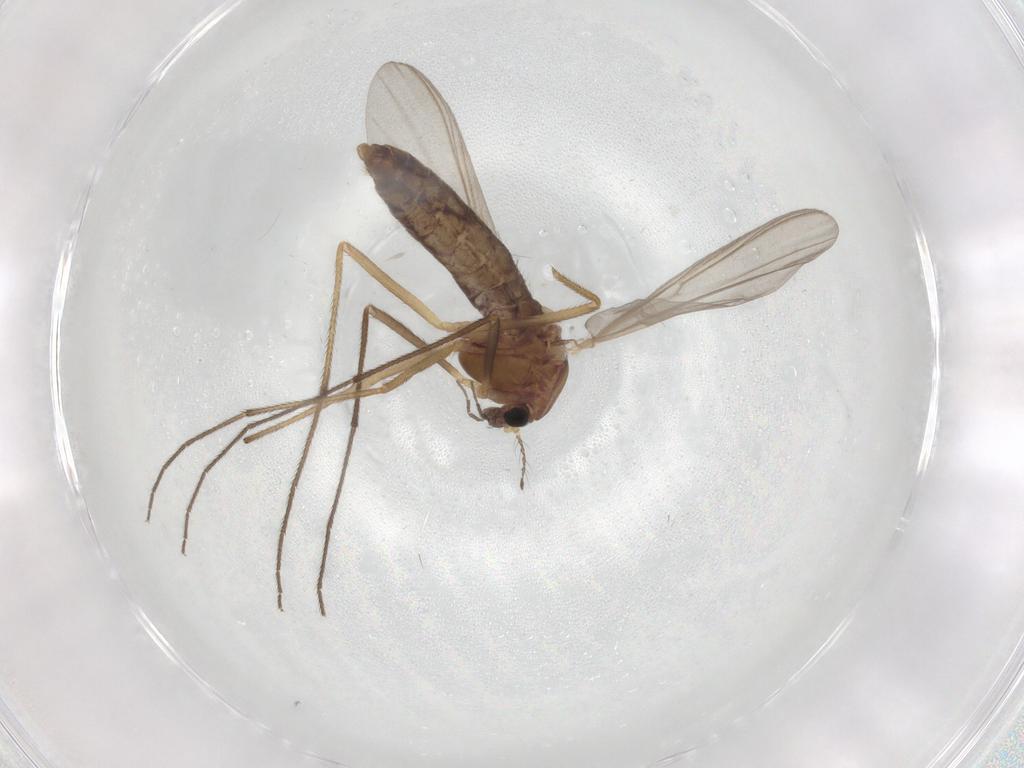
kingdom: Animalia
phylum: Arthropoda
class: Insecta
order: Diptera
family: Chironomidae
